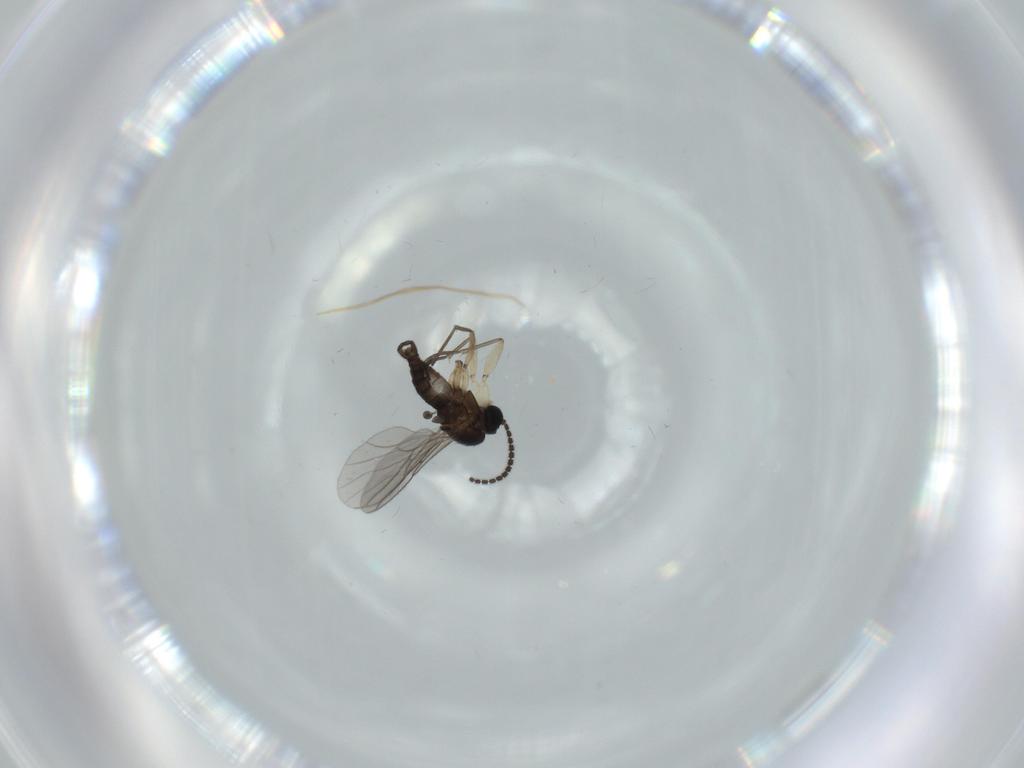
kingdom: Animalia
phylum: Arthropoda
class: Insecta
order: Diptera
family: Sciaridae
